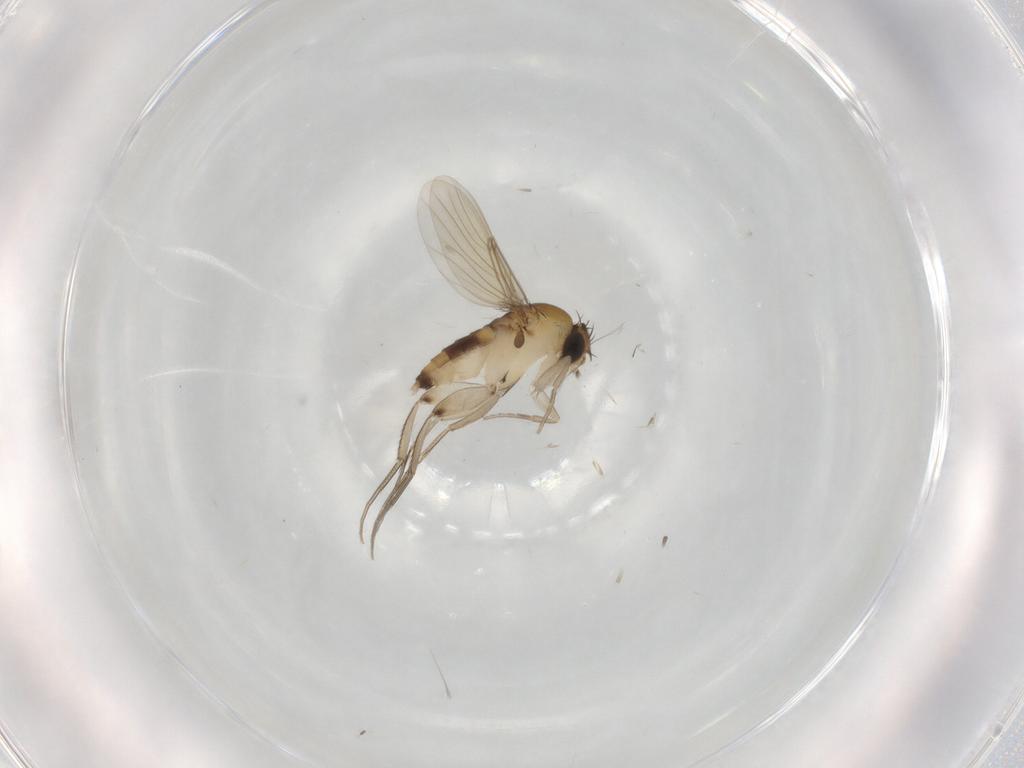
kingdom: Animalia
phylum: Arthropoda
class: Insecta
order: Diptera
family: Phoridae
